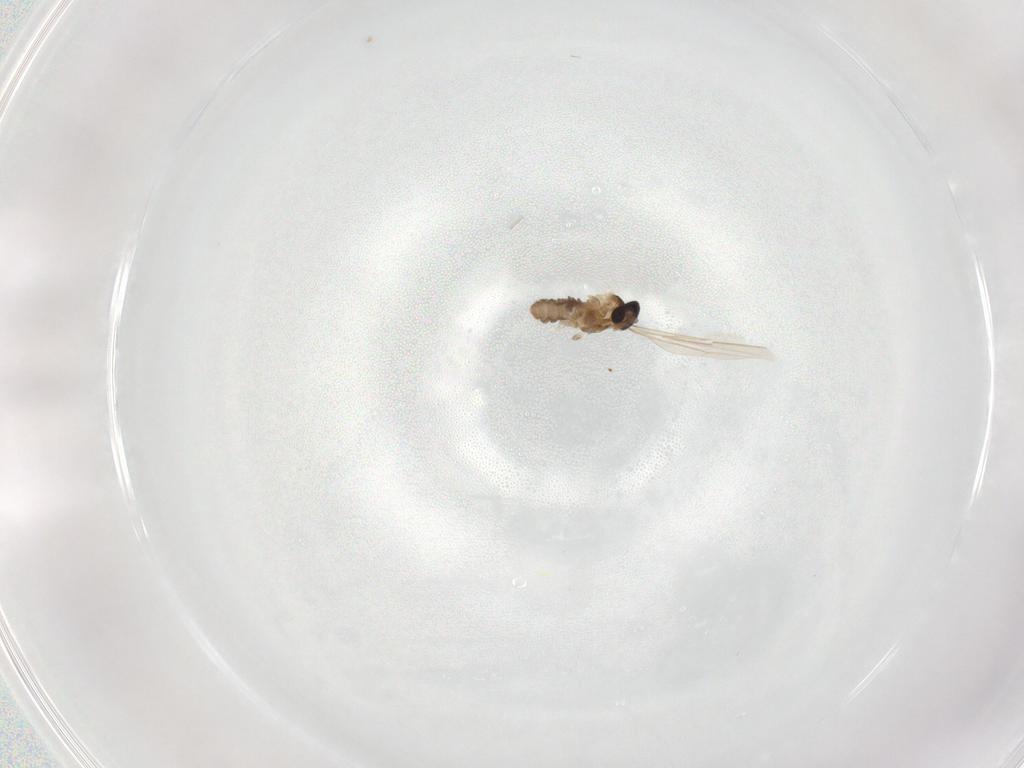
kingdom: Animalia
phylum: Arthropoda
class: Insecta
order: Diptera
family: Cecidomyiidae
